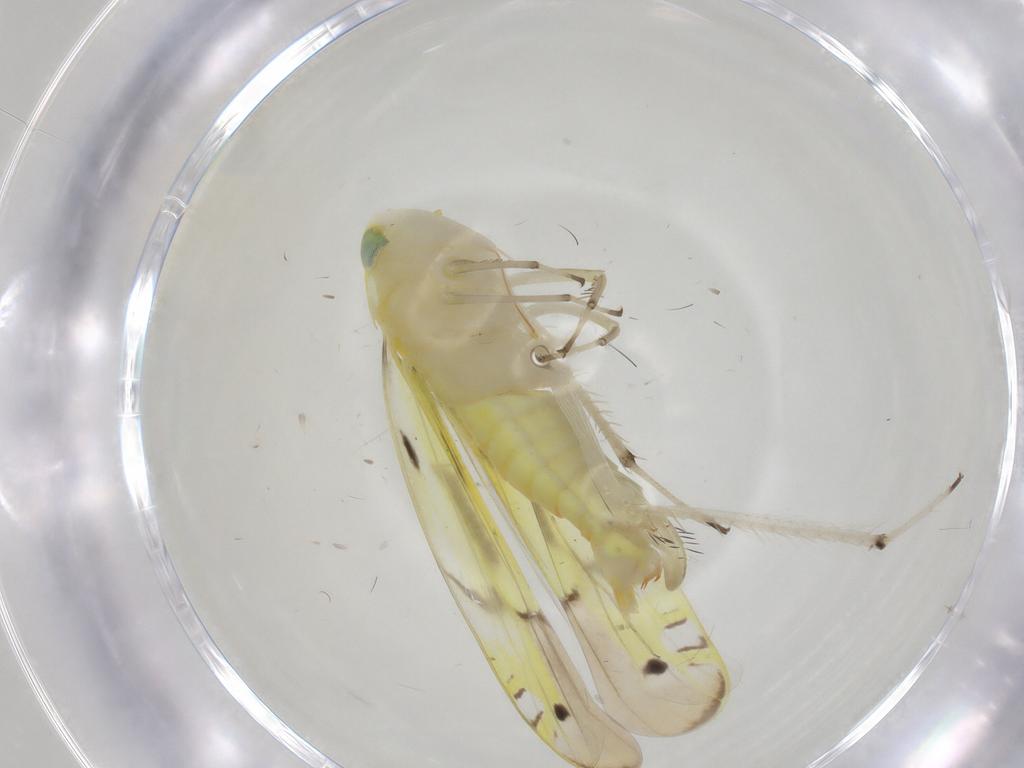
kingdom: Animalia
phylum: Arthropoda
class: Insecta
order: Hemiptera
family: Cicadellidae
